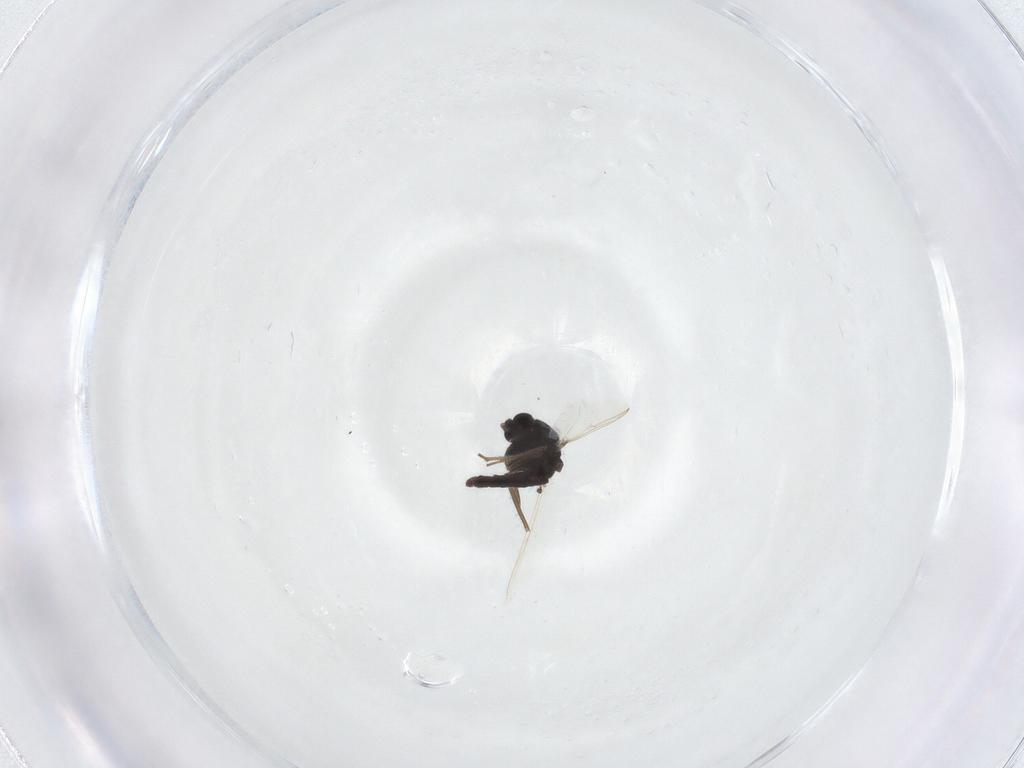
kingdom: Animalia
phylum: Arthropoda
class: Insecta
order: Diptera
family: Chironomidae
